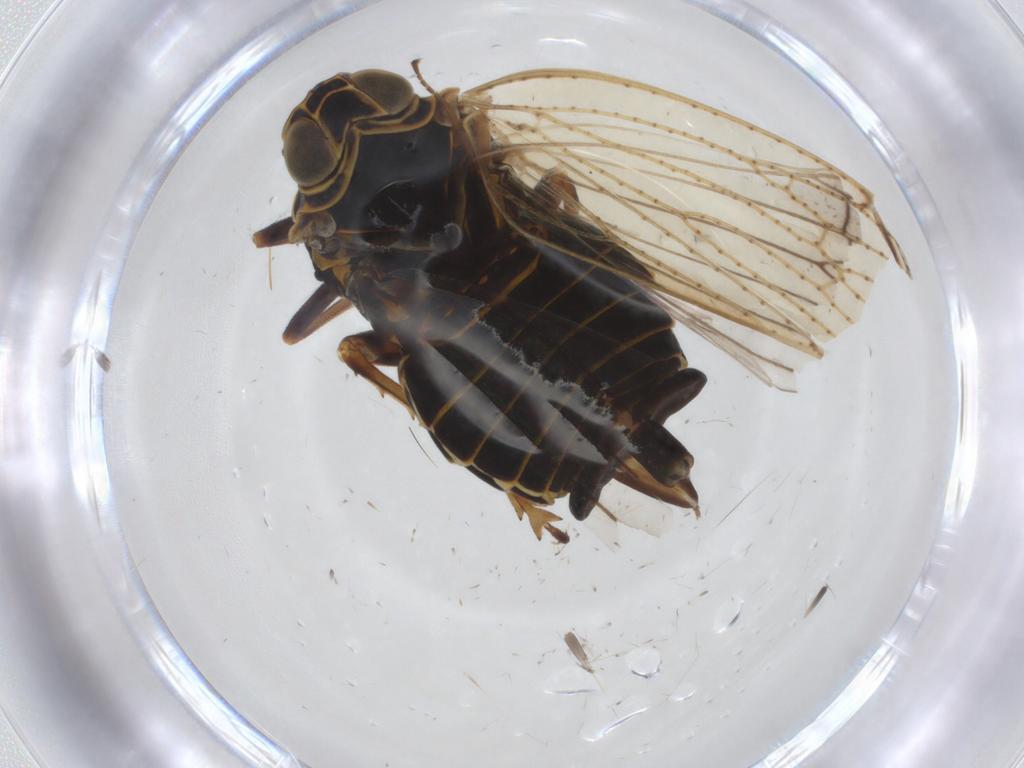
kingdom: Animalia
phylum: Arthropoda
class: Insecta
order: Hemiptera
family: Cixiidae
